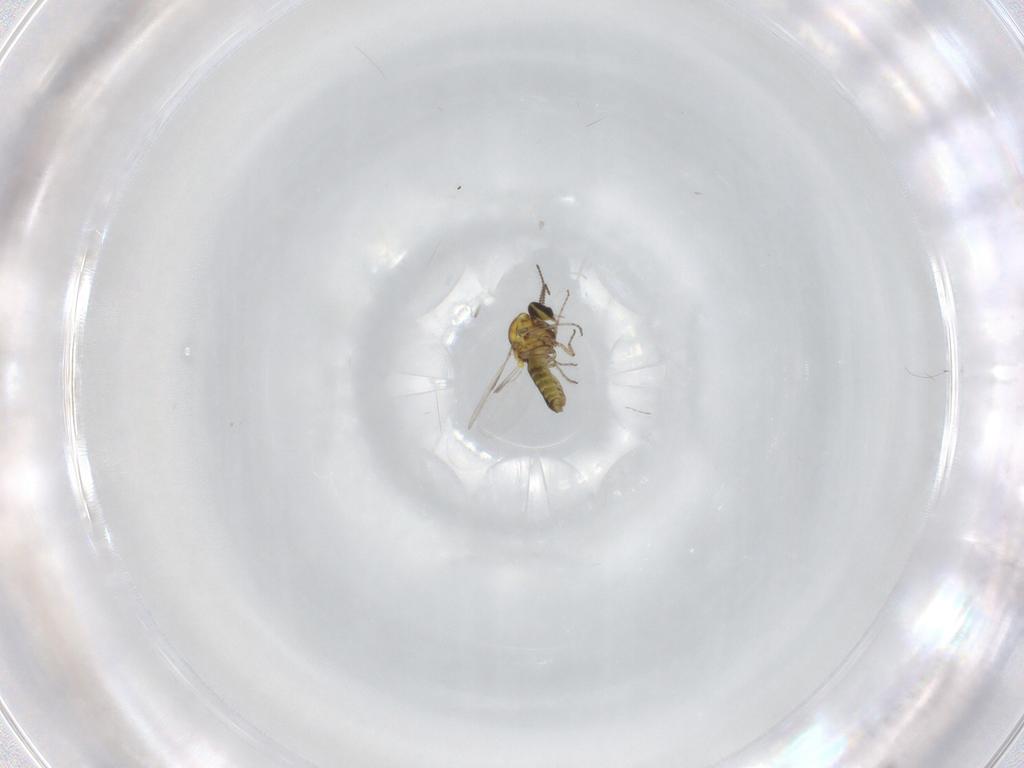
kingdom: Animalia
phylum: Arthropoda
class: Insecta
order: Diptera
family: Ceratopogonidae
